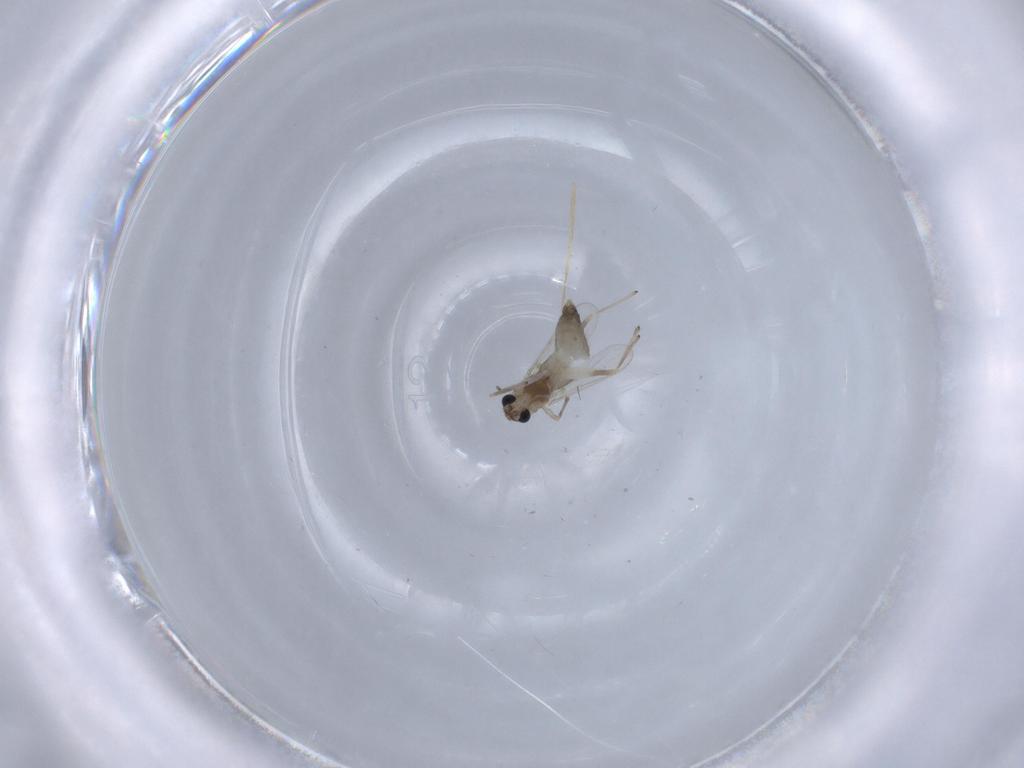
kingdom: Animalia
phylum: Arthropoda
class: Insecta
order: Diptera
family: Chironomidae
